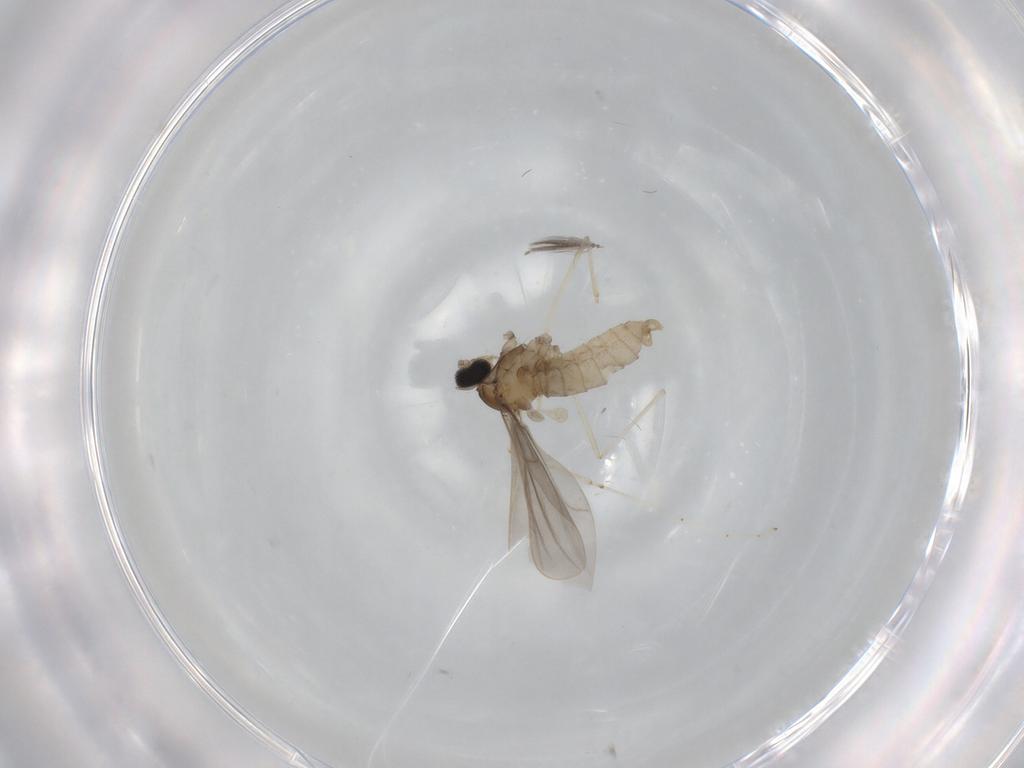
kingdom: Animalia
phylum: Arthropoda
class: Insecta
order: Diptera
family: Cecidomyiidae
